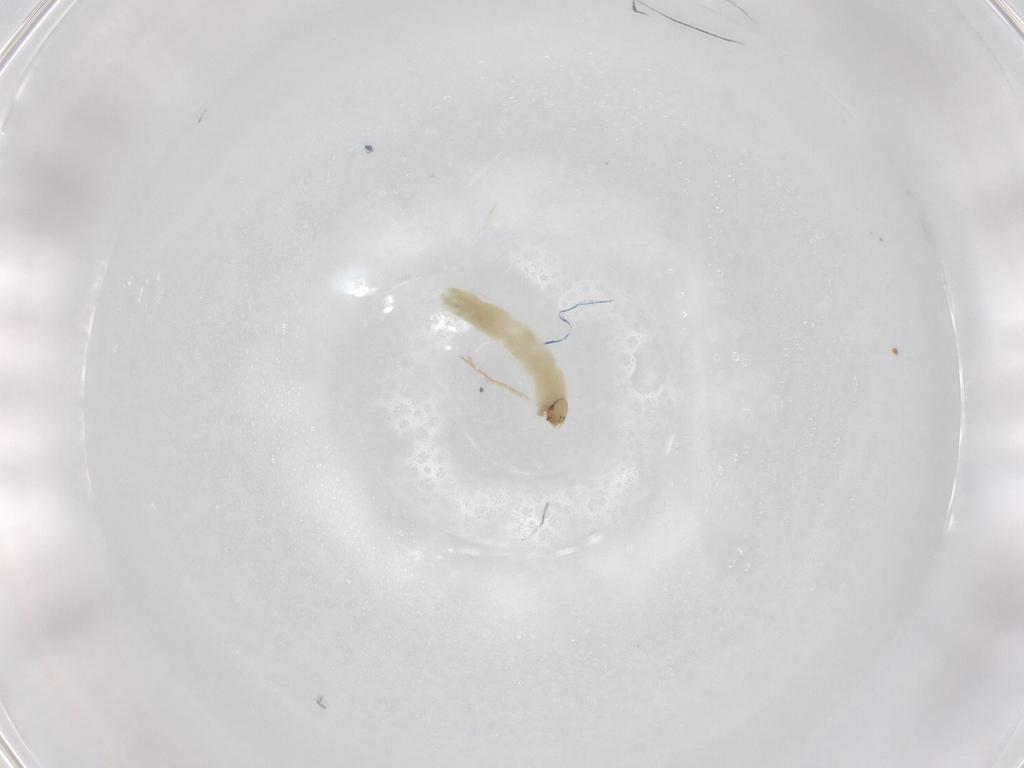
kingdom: Animalia
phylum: Arthropoda
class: Insecta
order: Diptera
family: Chironomidae
